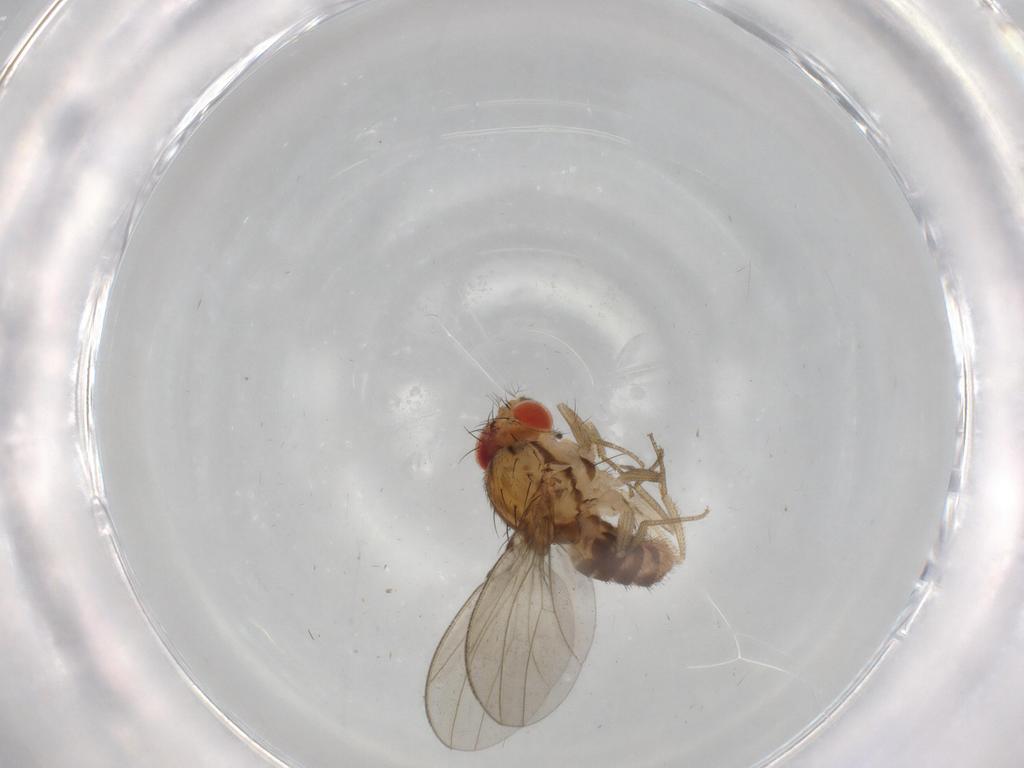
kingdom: Animalia
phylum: Arthropoda
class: Insecta
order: Diptera
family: Drosophilidae
